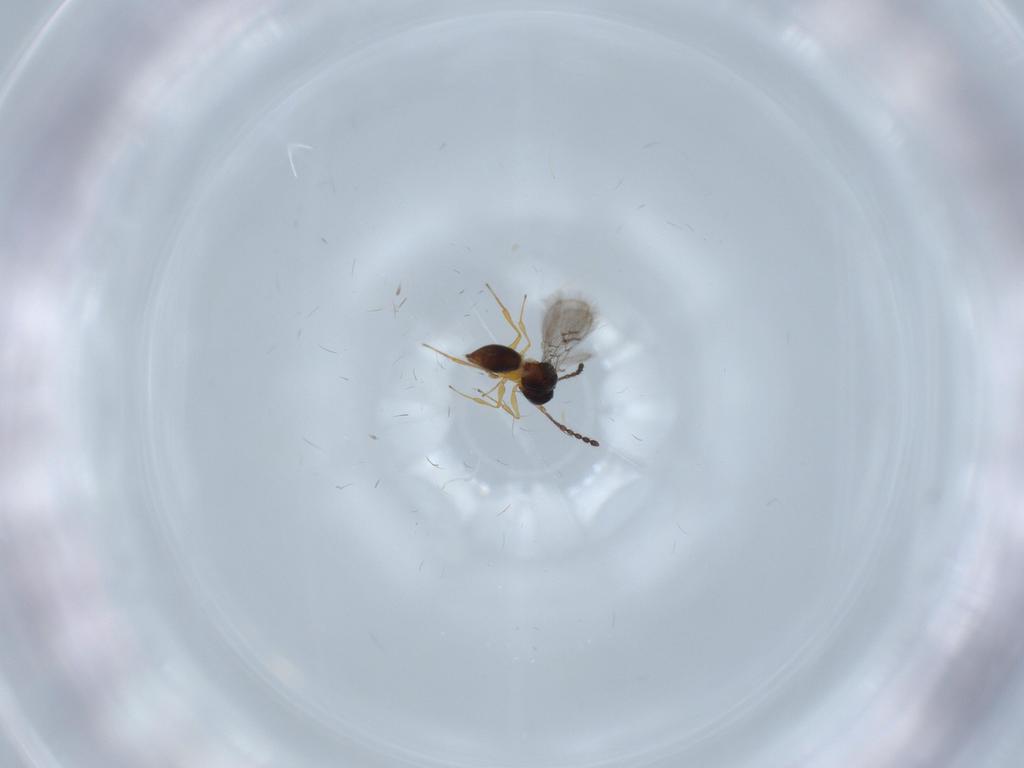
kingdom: Animalia
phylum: Arthropoda
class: Insecta
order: Hymenoptera
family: Figitidae
